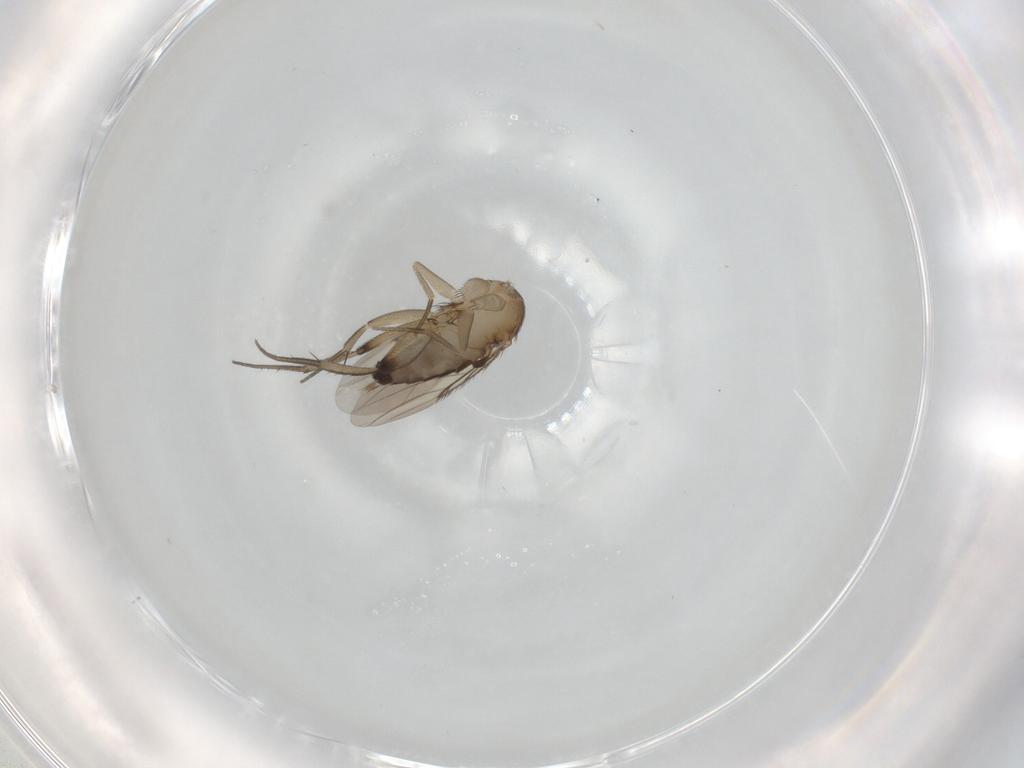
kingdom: Animalia
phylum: Arthropoda
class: Insecta
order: Diptera
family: Phoridae
